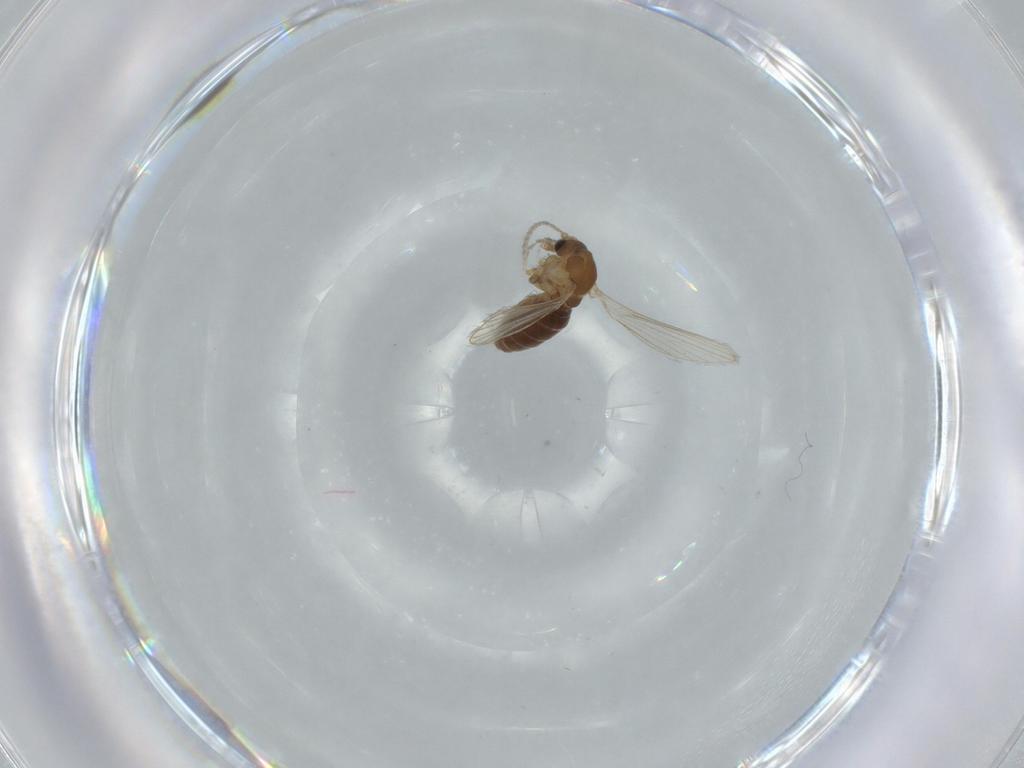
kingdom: Animalia
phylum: Arthropoda
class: Insecta
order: Diptera
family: Psychodidae
